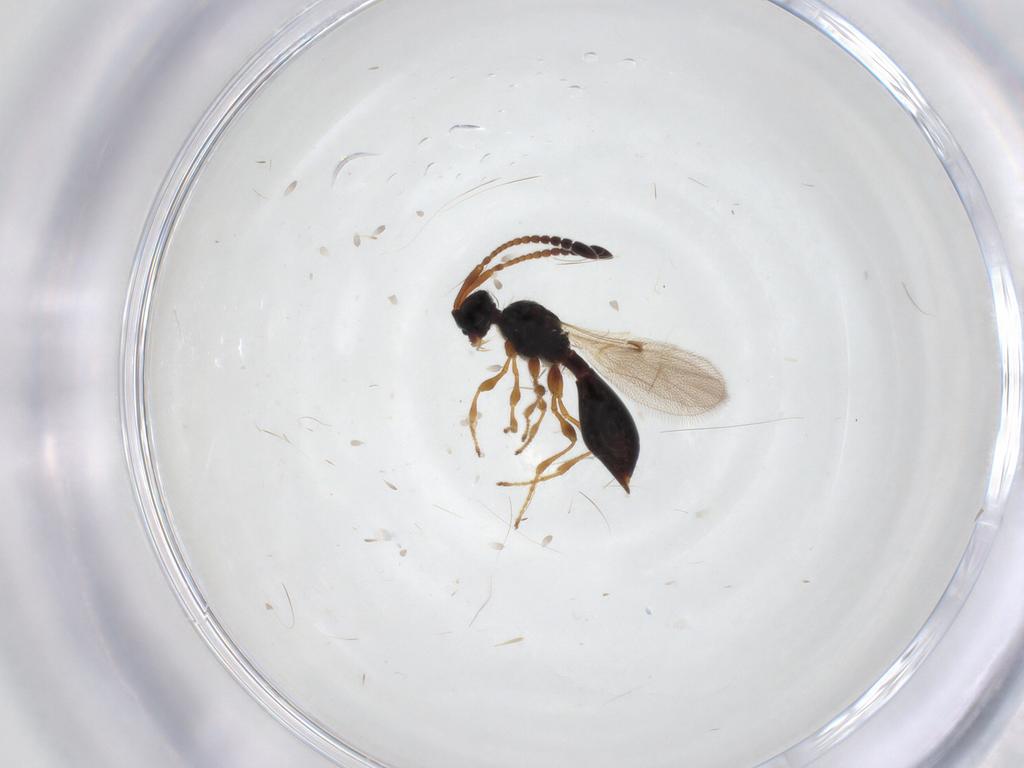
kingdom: Animalia
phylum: Arthropoda
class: Insecta
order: Hymenoptera
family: Diapriidae
